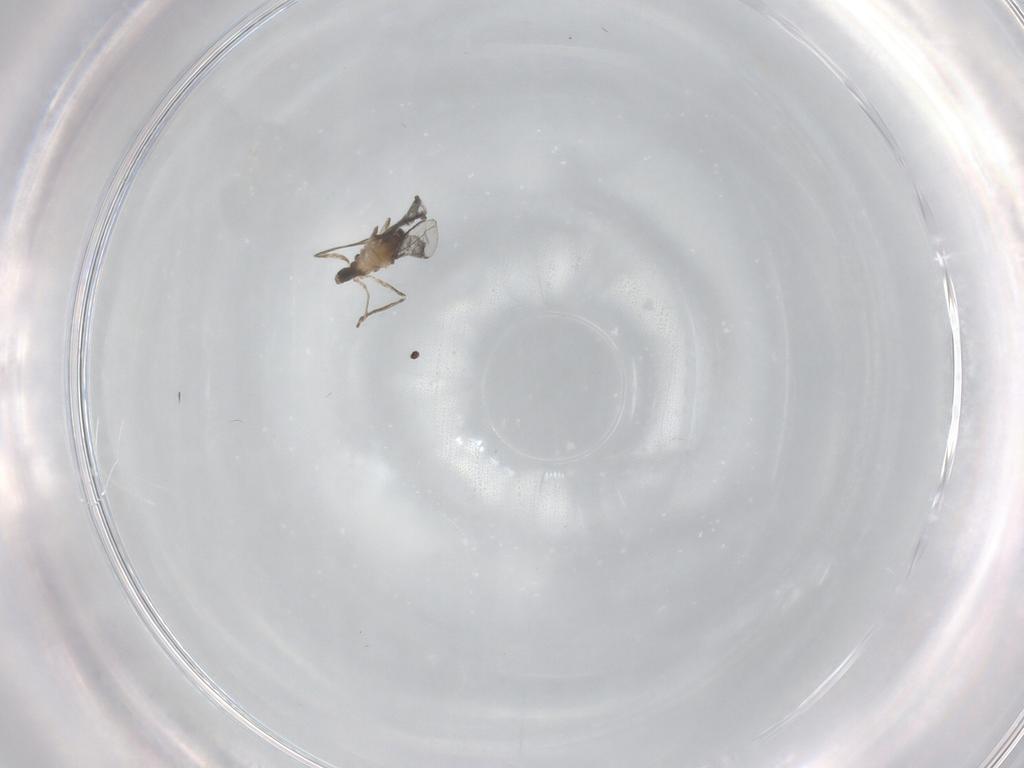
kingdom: Animalia
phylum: Arthropoda
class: Insecta
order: Diptera
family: Cecidomyiidae
